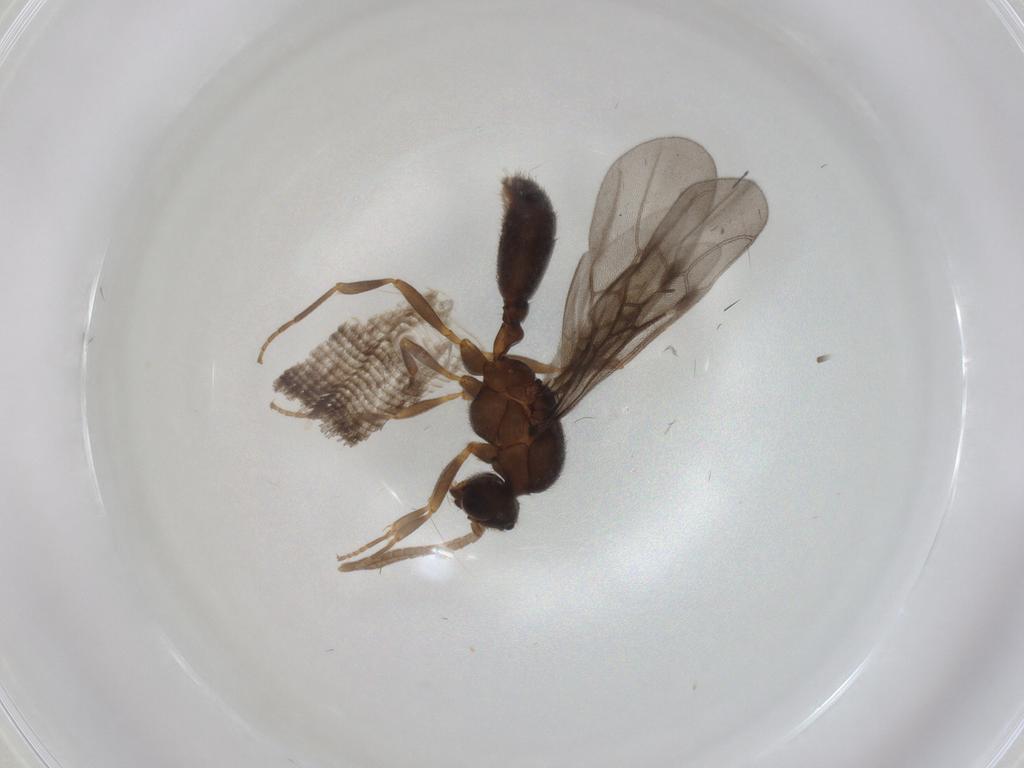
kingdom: Animalia
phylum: Arthropoda
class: Insecta
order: Hymenoptera
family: Formicidae
